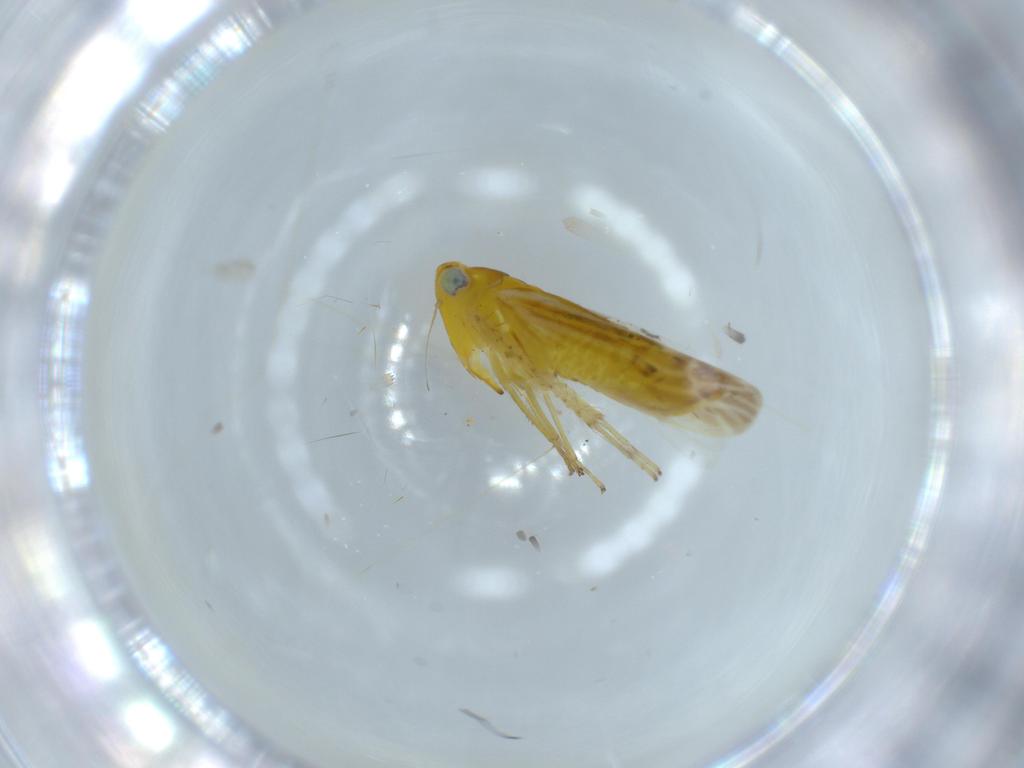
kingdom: Animalia
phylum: Arthropoda
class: Insecta
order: Hemiptera
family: Cicadellidae
